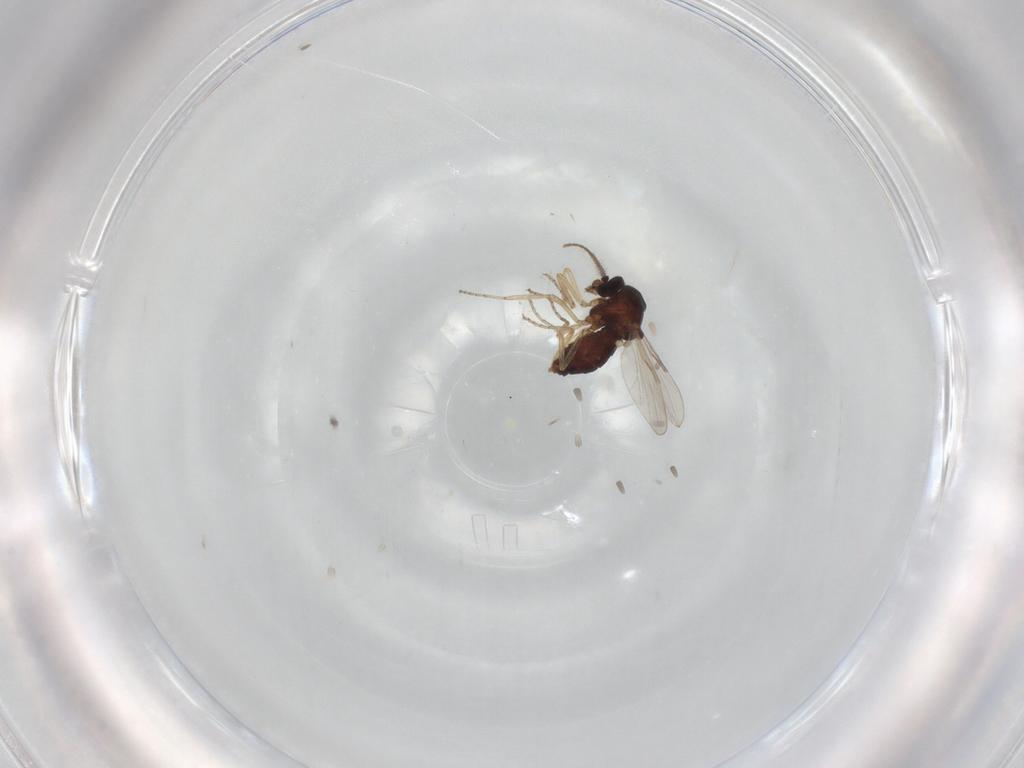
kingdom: Animalia
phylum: Arthropoda
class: Insecta
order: Diptera
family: Ceratopogonidae
